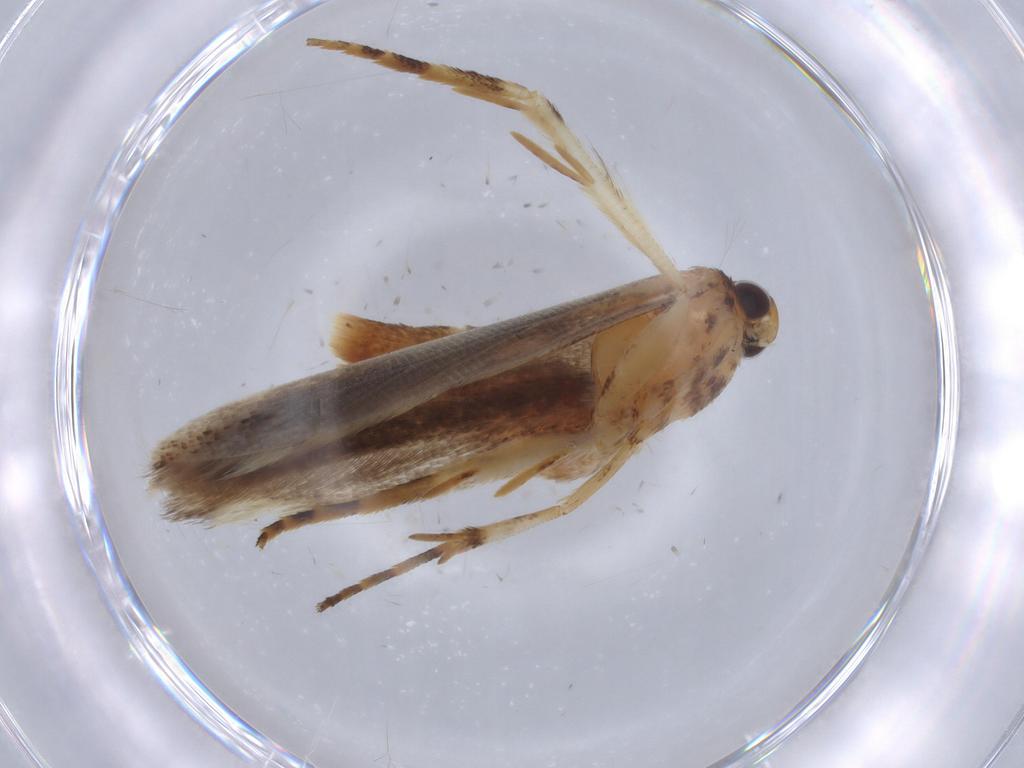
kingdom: Animalia
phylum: Arthropoda
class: Insecta
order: Lepidoptera
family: Gelechiidae
